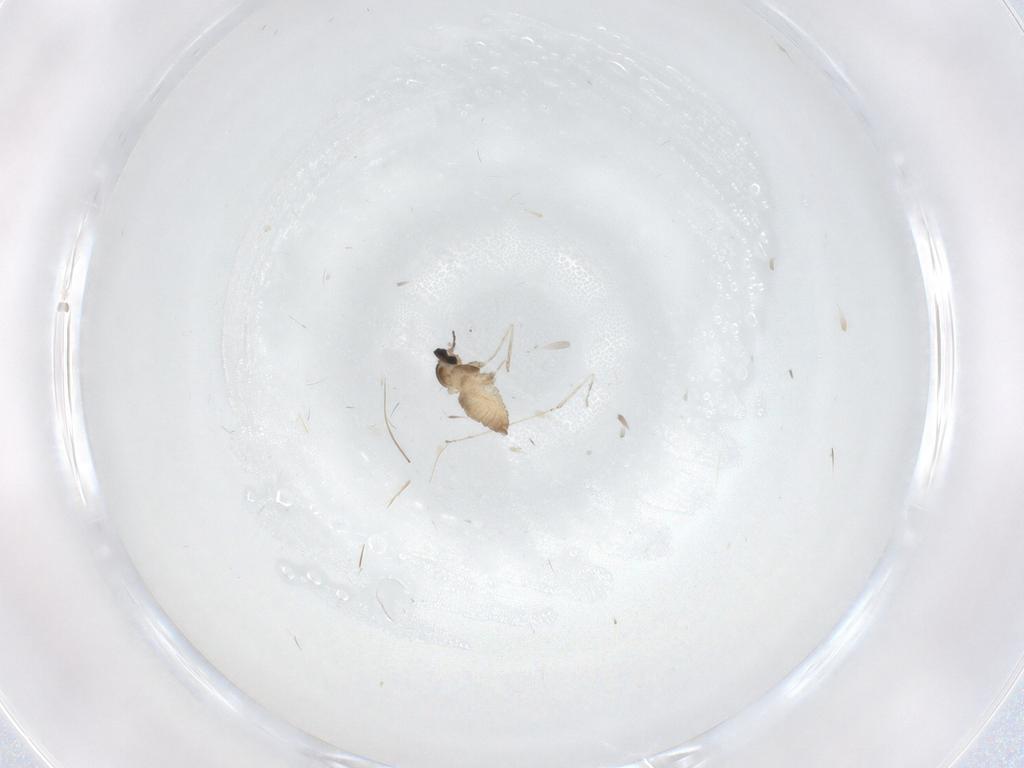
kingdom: Animalia
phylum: Arthropoda
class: Insecta
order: Diptera
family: Cecidomyiidae
